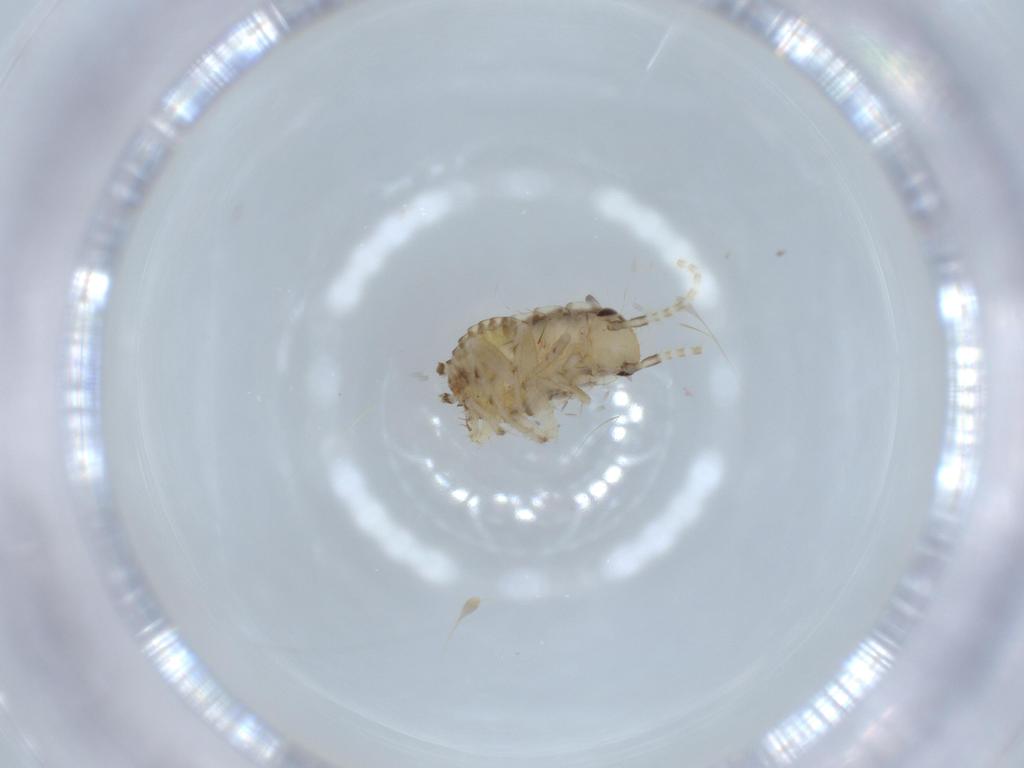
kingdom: Animalia
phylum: Arthropoda
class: Insecta
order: Blattodea
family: Ectobiidae
